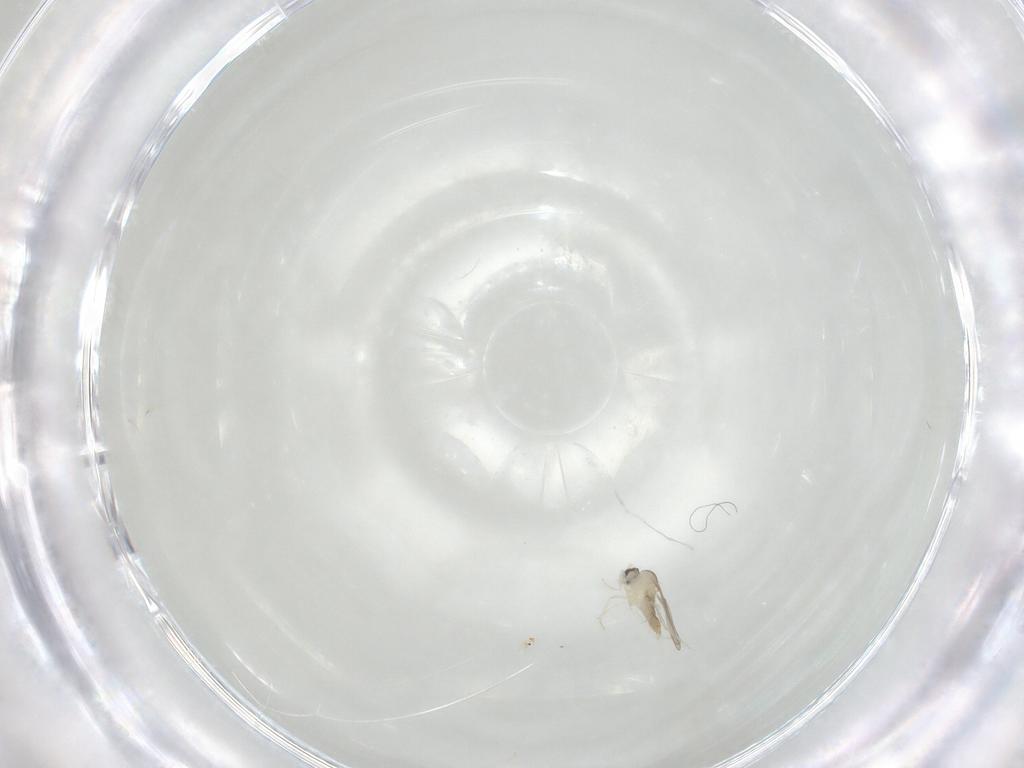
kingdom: Animalia
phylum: Arthropoda
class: Insecta
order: Diptera
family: Cecidomyiidae
